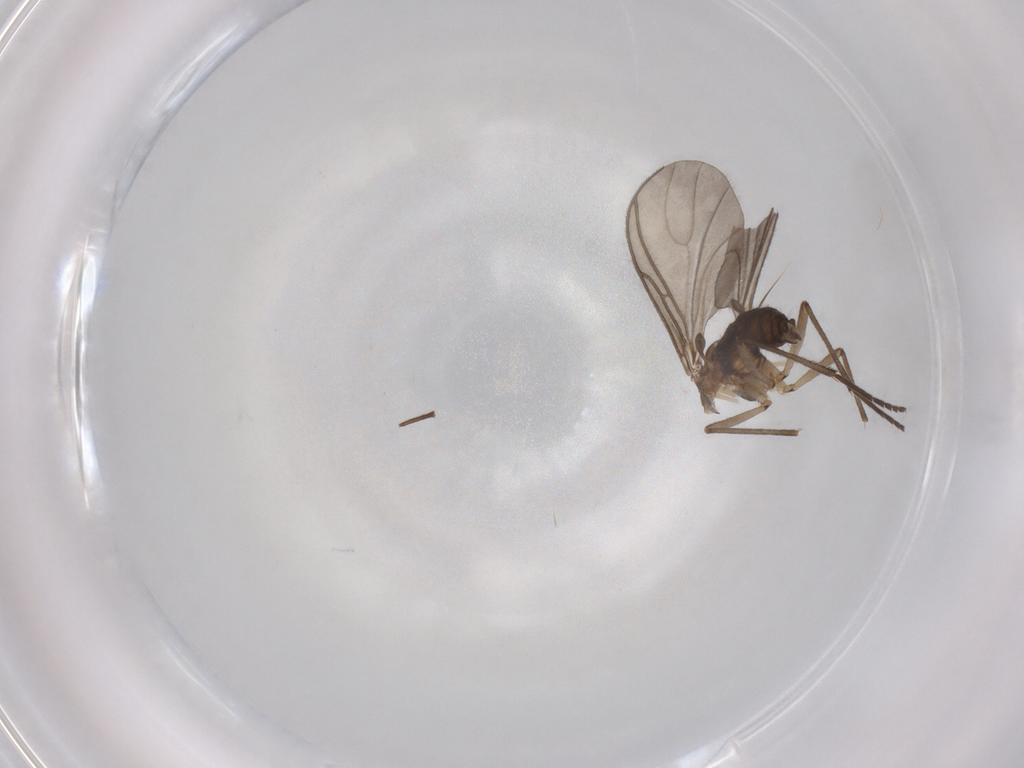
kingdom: Animalia
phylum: Arthropoda
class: Insecta
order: Diptera
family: Sciaridae
